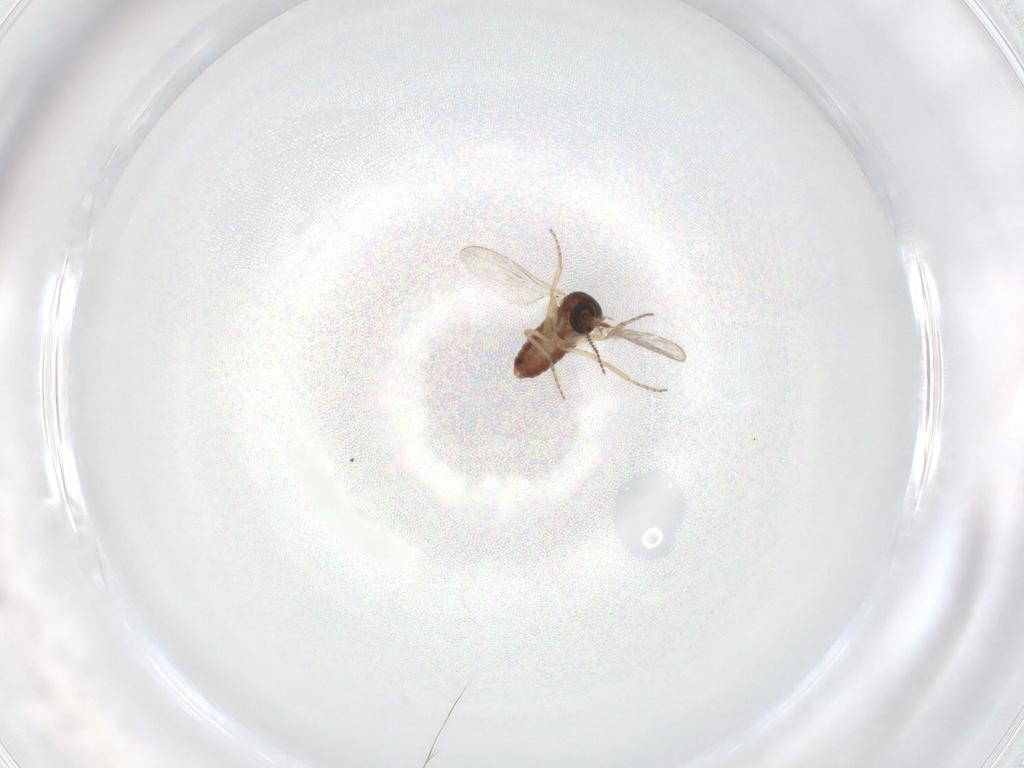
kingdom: Animalia
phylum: Arthropoda
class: Insecta
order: Diptera
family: Ceratopogonidae
